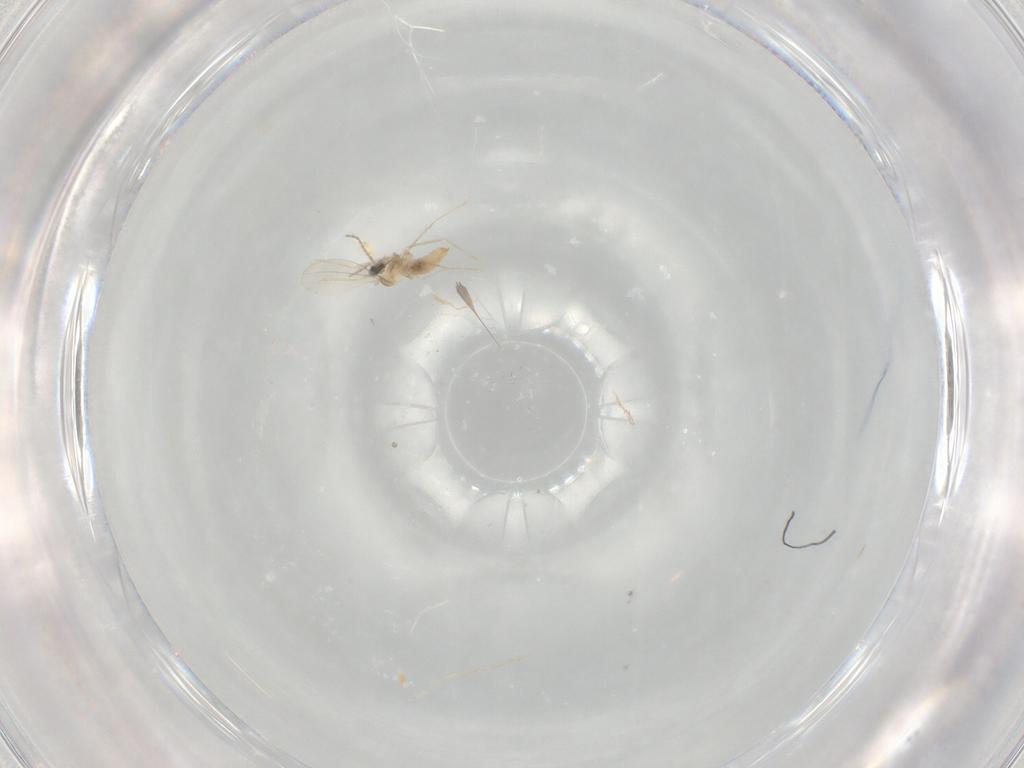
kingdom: Animalia
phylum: Arthropoda
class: Insecta
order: Diptera
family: Cecidomyiidae
